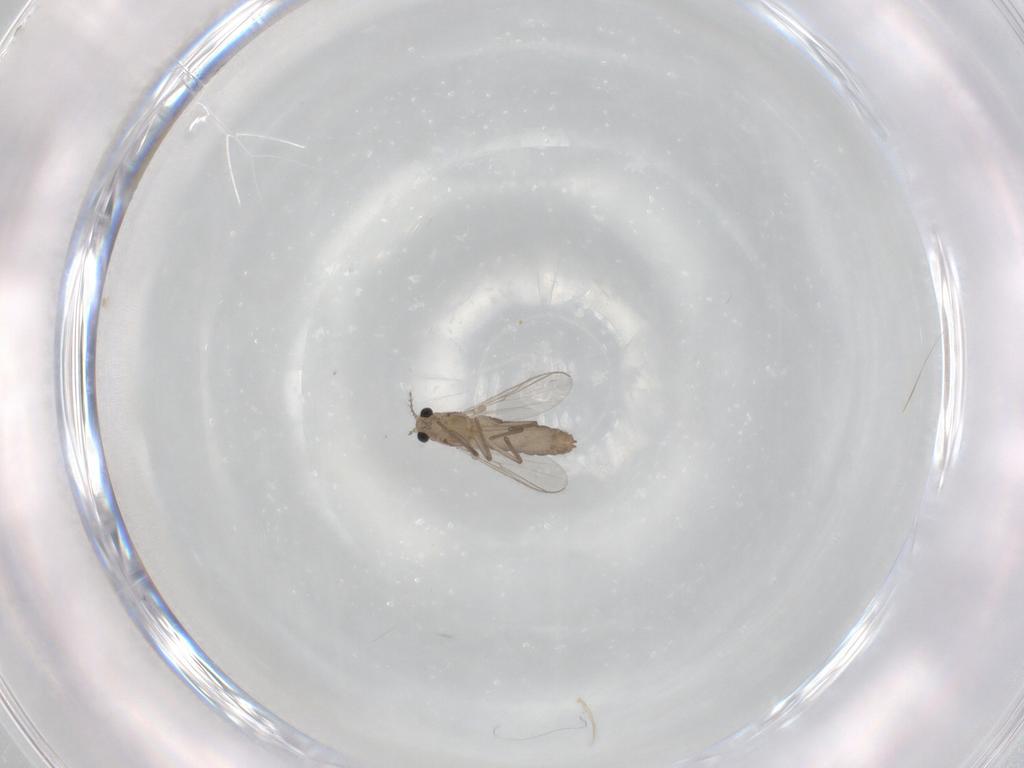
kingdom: Animalia
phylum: Arthropoda
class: Insecta
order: Diptera
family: Chironomidae
